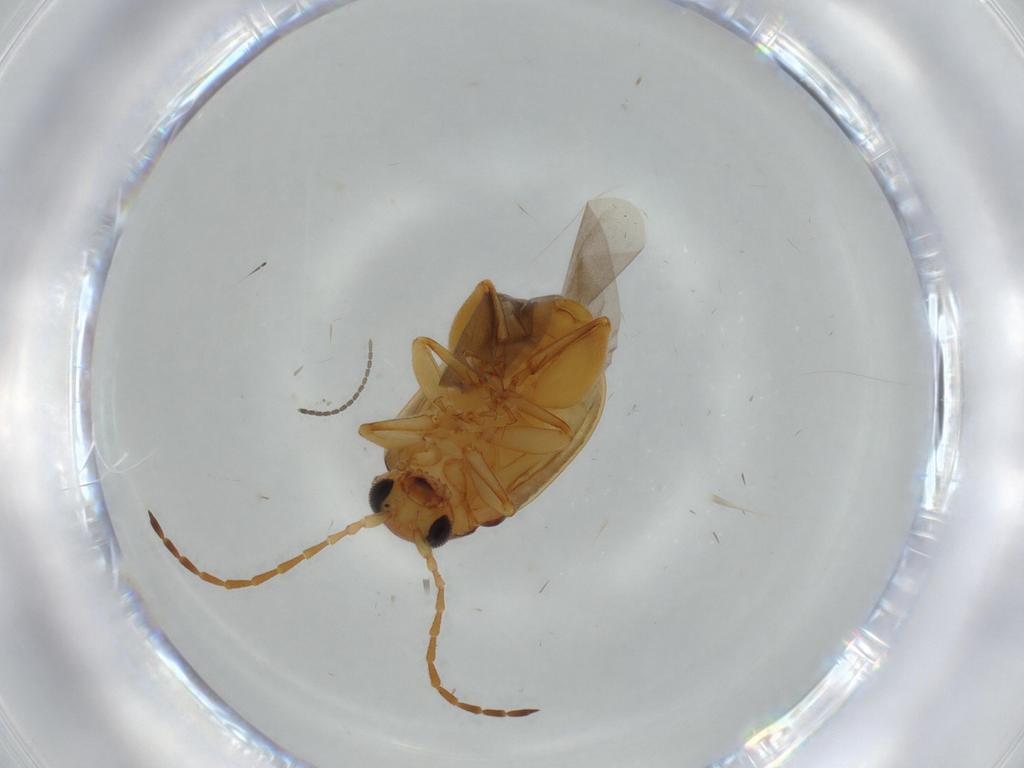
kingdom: Animalia
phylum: Arthropoda
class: Insecta
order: Coleoptera
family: Chrysomelidae
